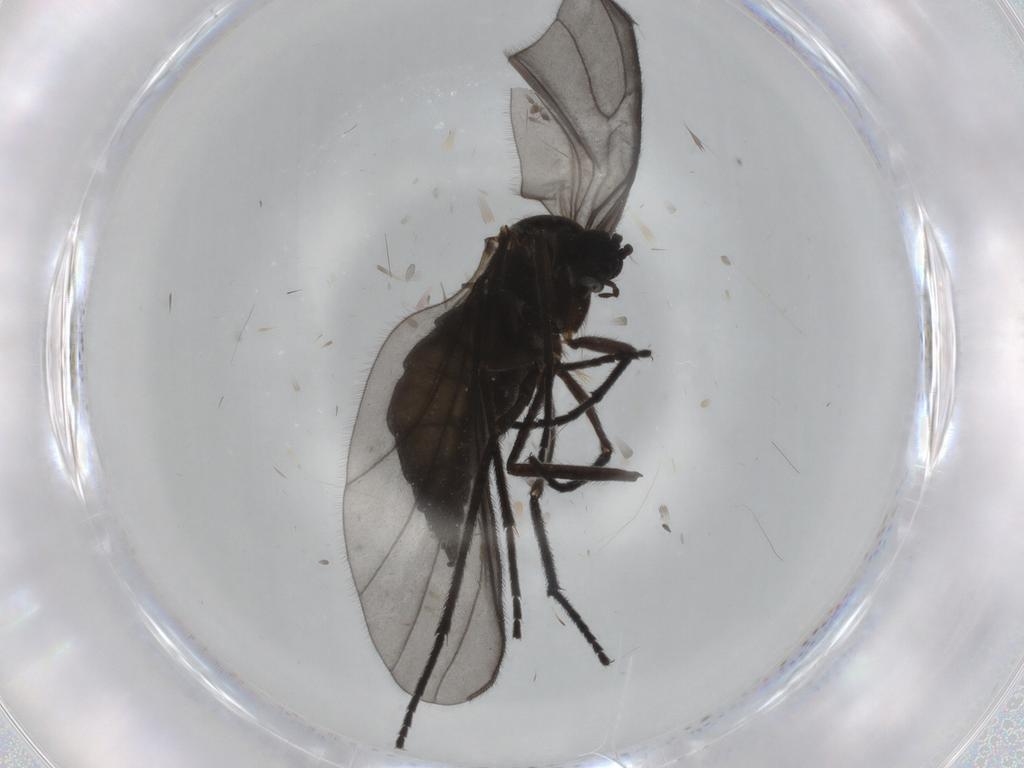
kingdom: Animalia
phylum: Arthropoda
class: Insecta
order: Diptera
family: Sciaridae
